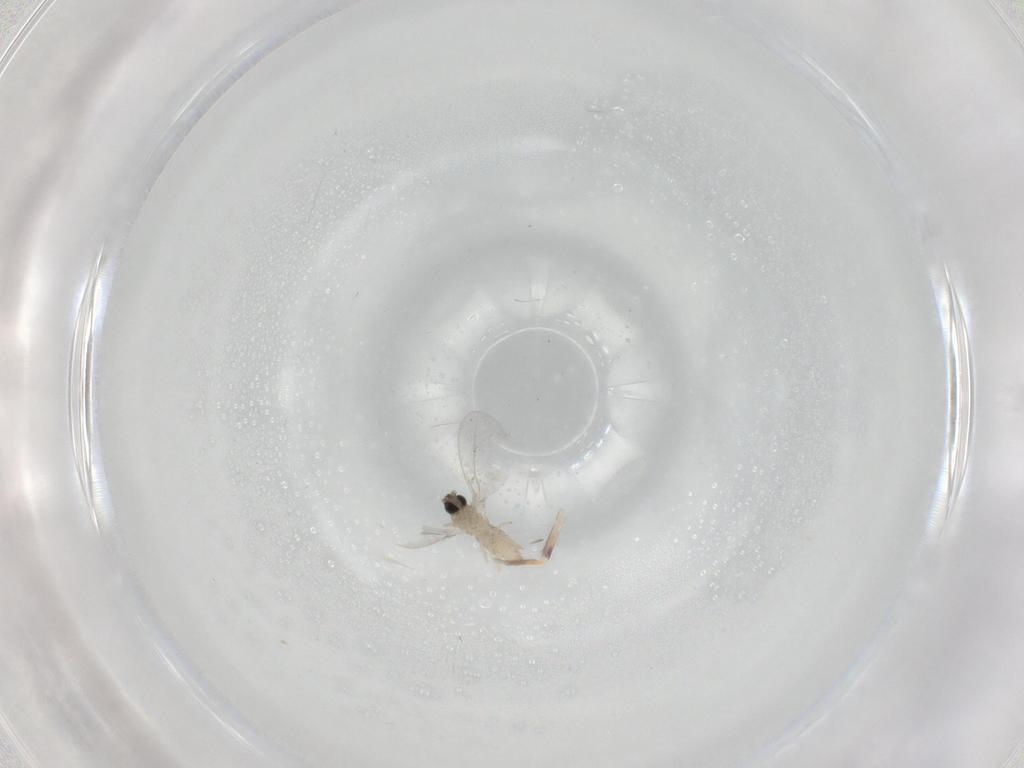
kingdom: Animalia
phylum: Arthropoda
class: Insecta
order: Diptera
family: Cecidomyiidae
